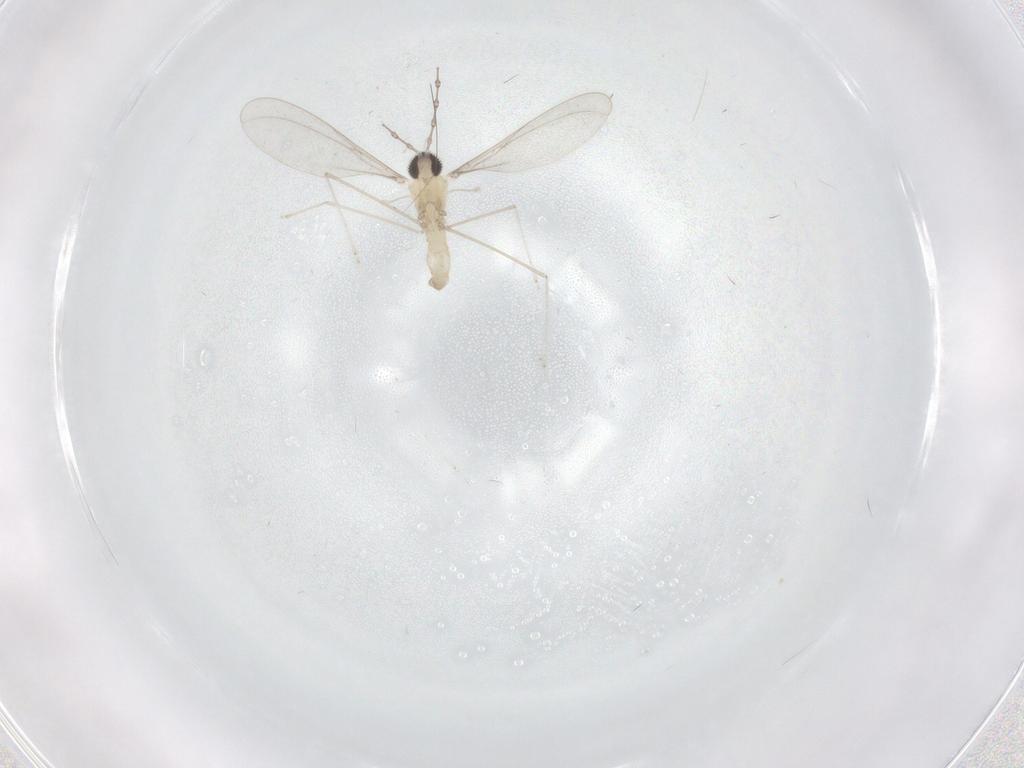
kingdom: Animalia
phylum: Arthropoda
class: Insecta
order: Diptera
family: Cecidomyiidae
